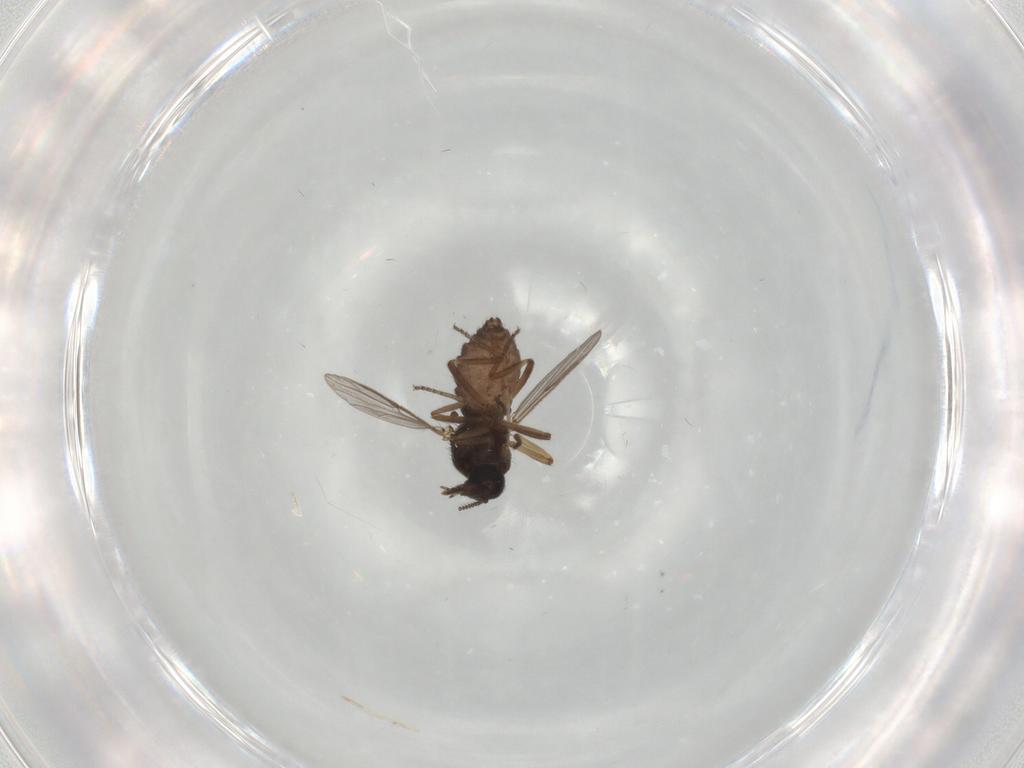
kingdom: Animalia
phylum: Arthropoda
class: Insecta
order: Diptera
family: Ceratopogonidae
